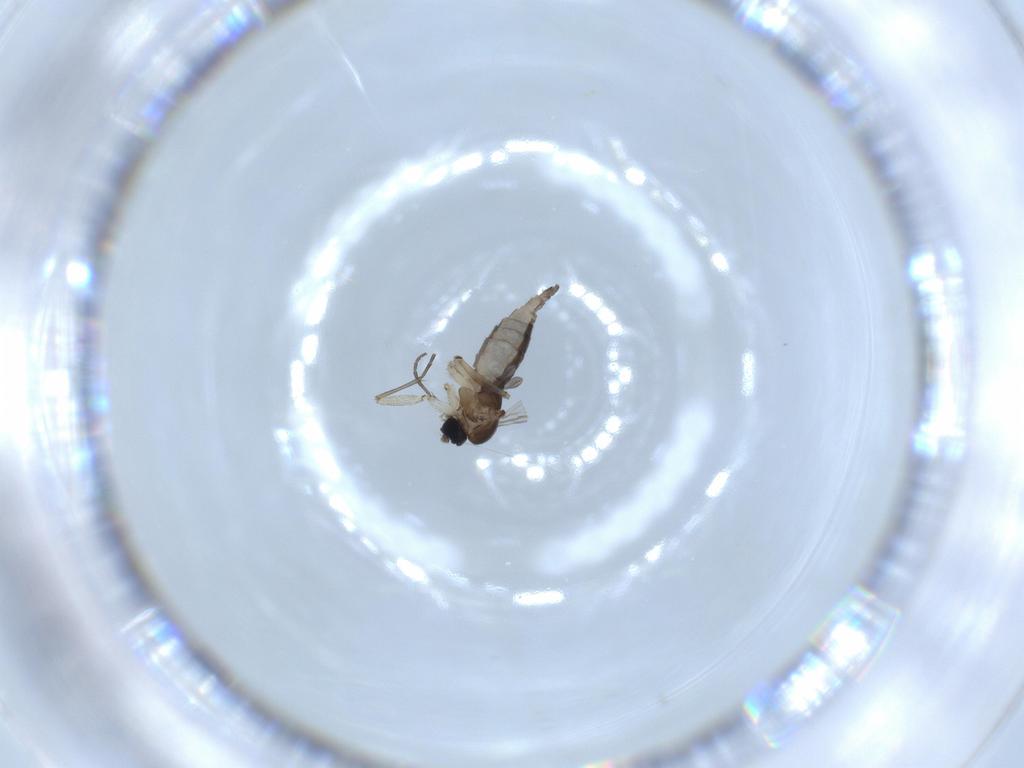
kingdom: Animalia
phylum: Arthropoda
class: Insecta
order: Diptera
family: Sciaridae
